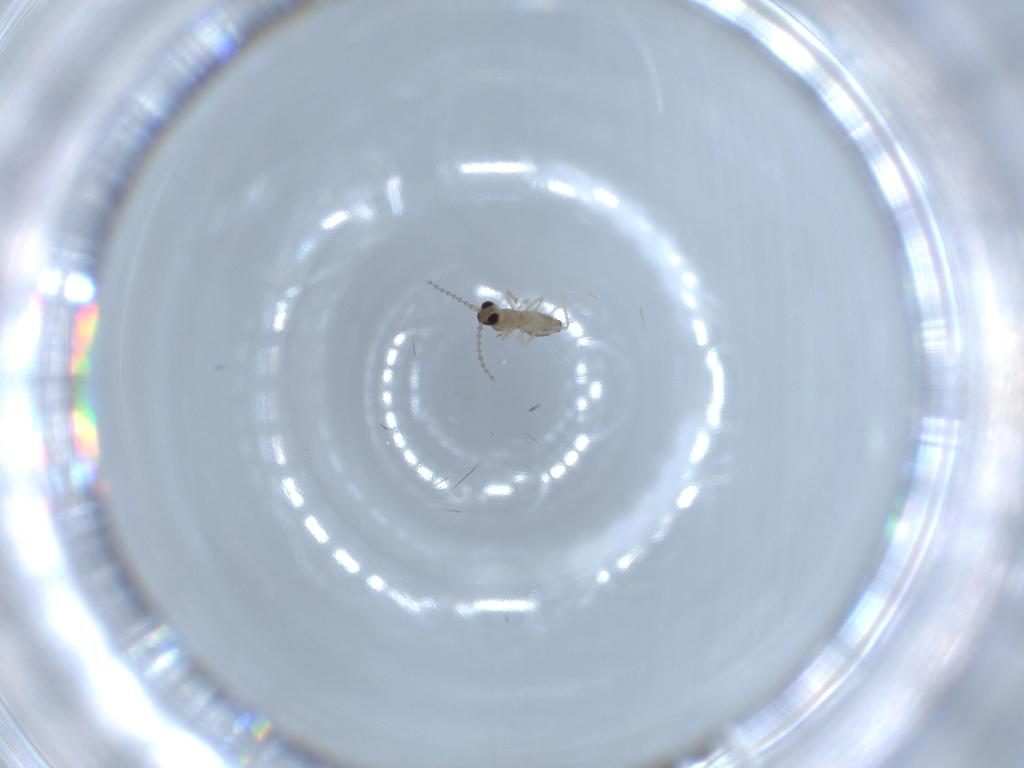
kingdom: Animalia
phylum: Arthropoda
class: Insecta
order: Diptera
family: Cecidomyiidae
